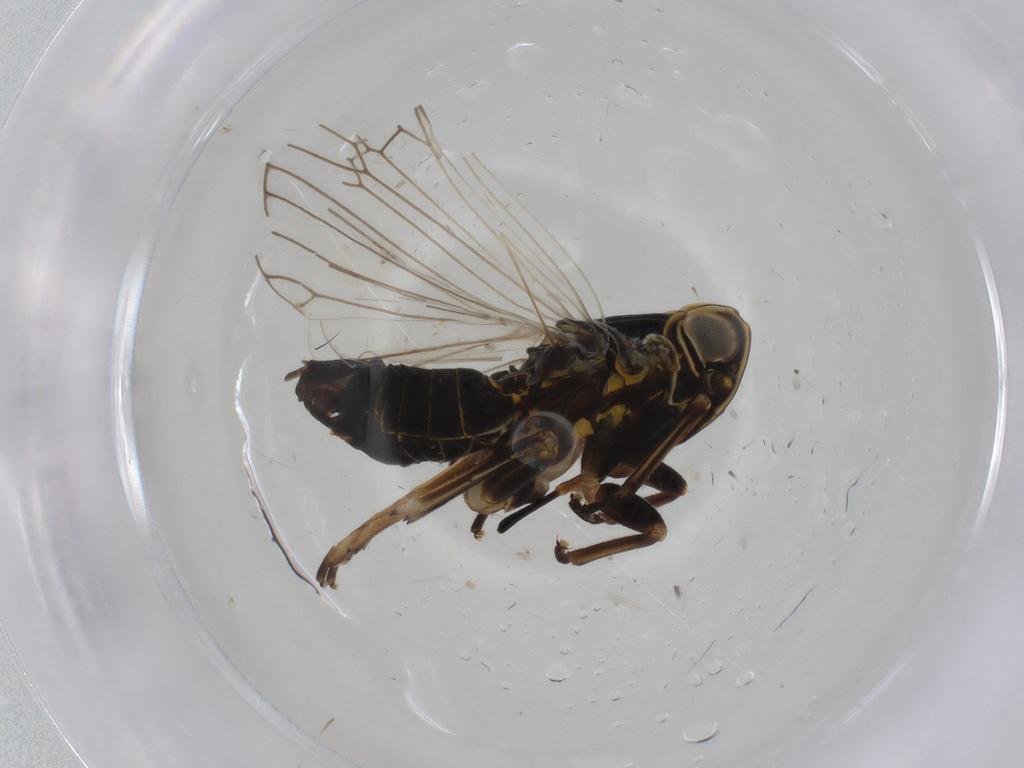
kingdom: Animalia
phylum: Arthropoda
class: Insecta
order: Hemiptera
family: Cixiidae
